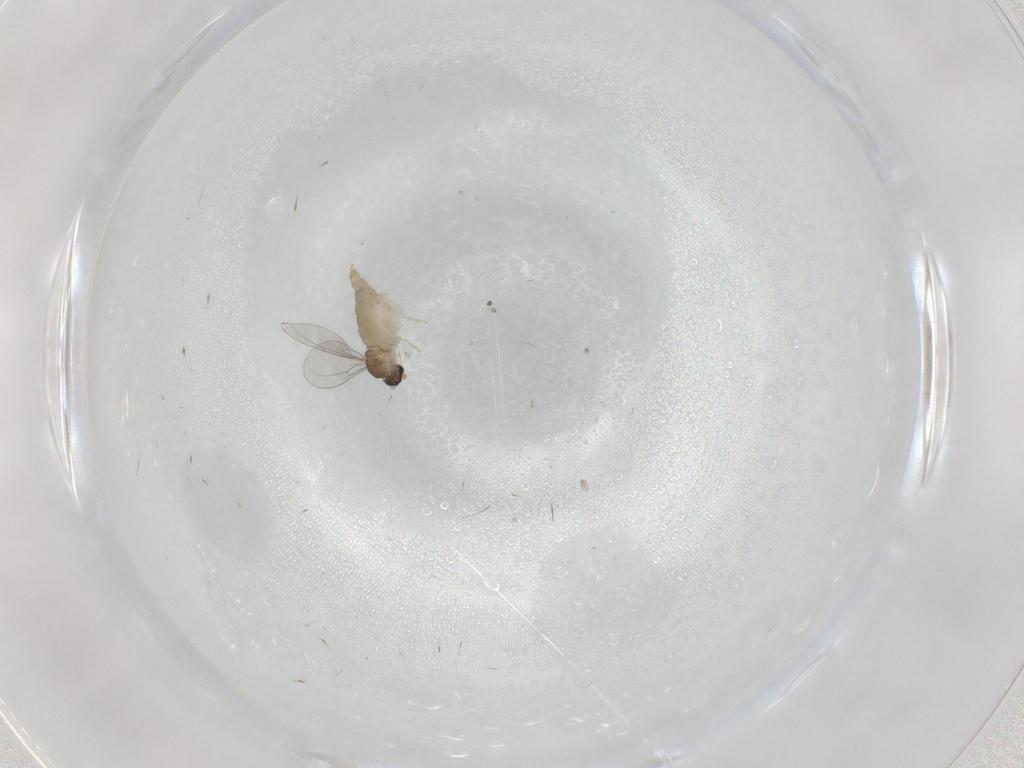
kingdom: Animalia
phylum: Arthropoda
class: Insecta
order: Diptera
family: Cecidomyiidae
